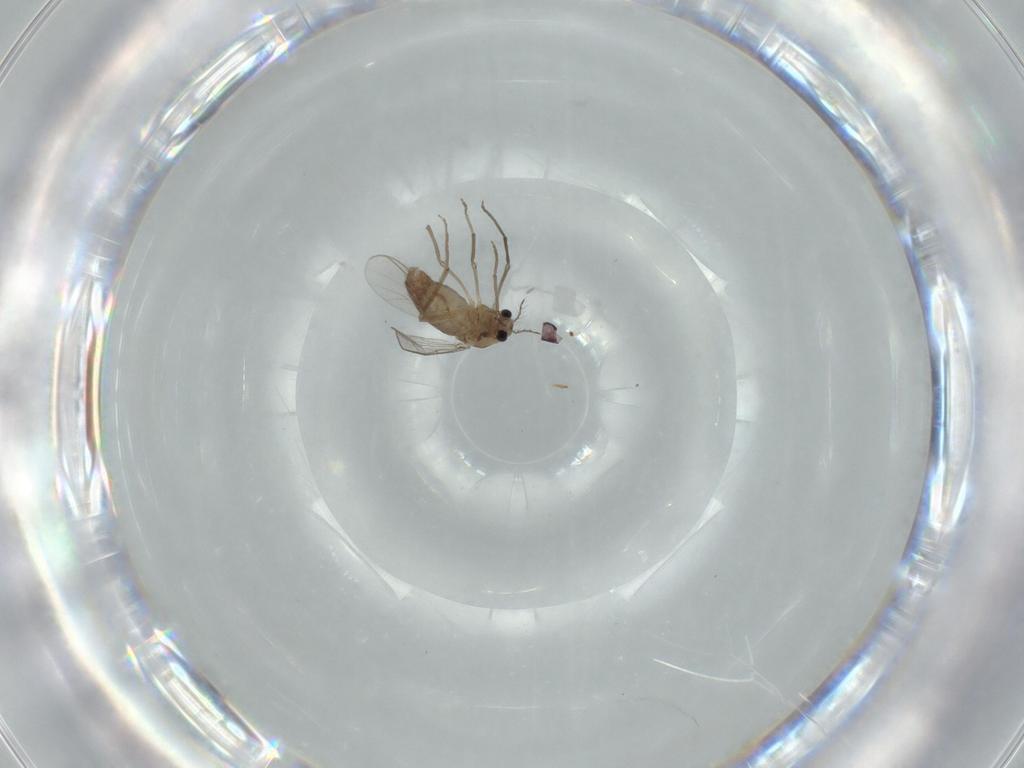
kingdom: Animalia
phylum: Arthropoda
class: Insecta
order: Diptera
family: Chironomidae
